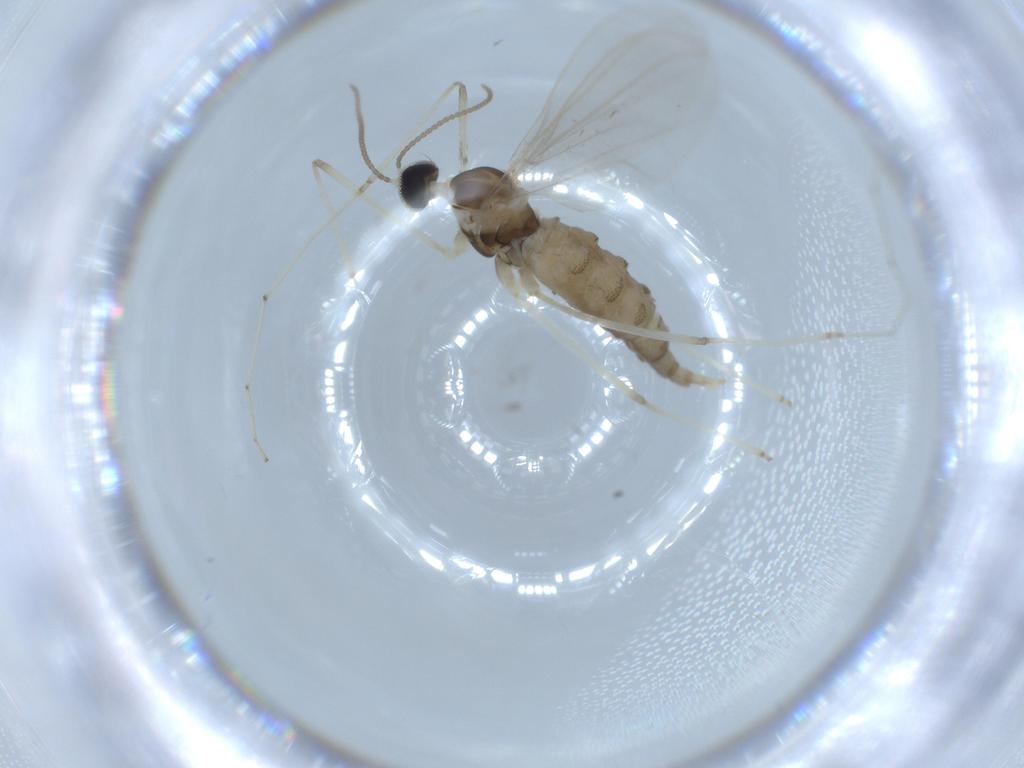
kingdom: Animalia
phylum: Arthropoda
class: Insecta
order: Diptera
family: Cecidomyiidae
